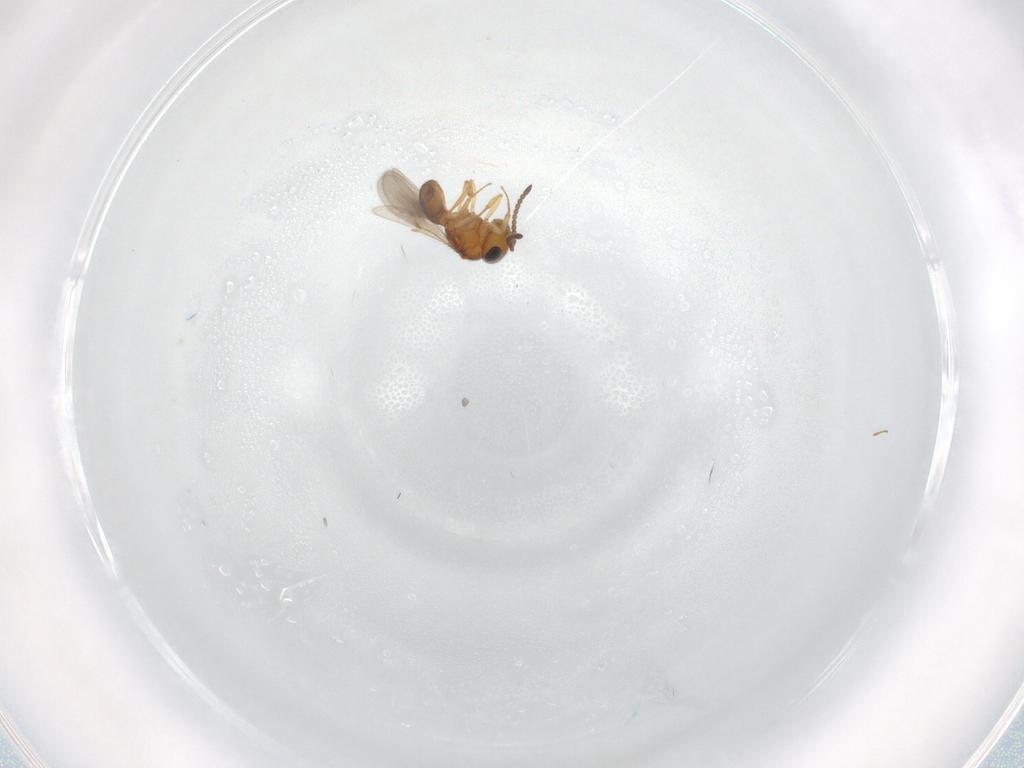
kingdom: Animalia
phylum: Arthropoda
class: Insecta
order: Hymenoptera
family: Scelionidae
